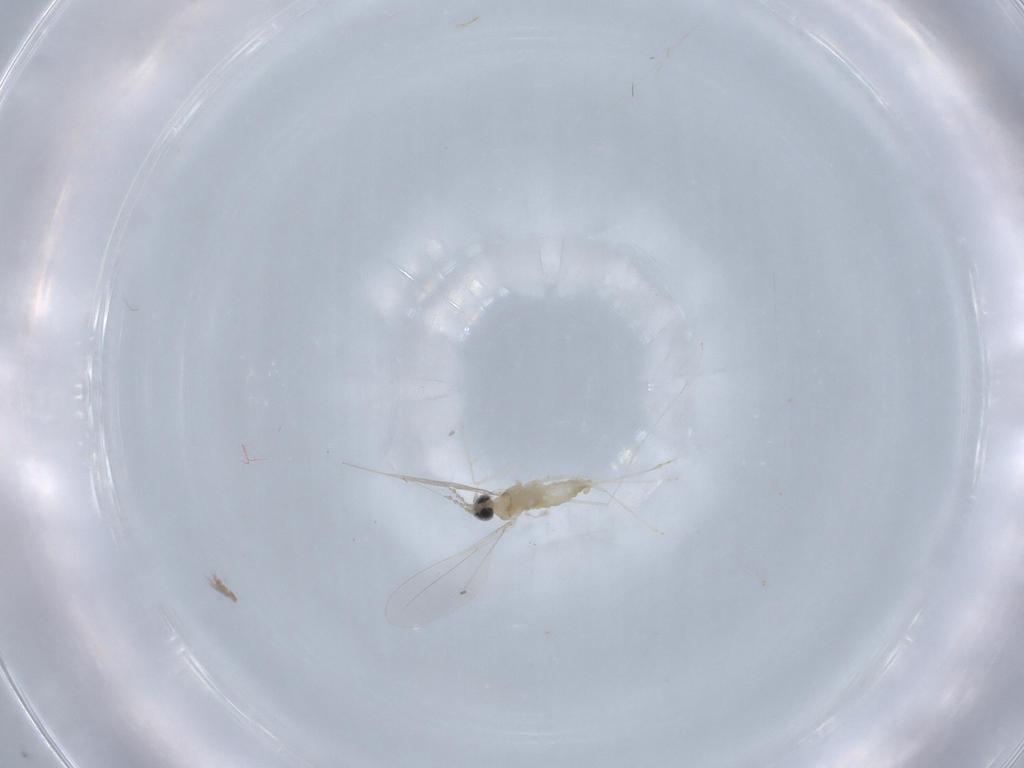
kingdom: Animalia
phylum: Arthropoda
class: Insecta
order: Diptera
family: Cecidomyiidae
